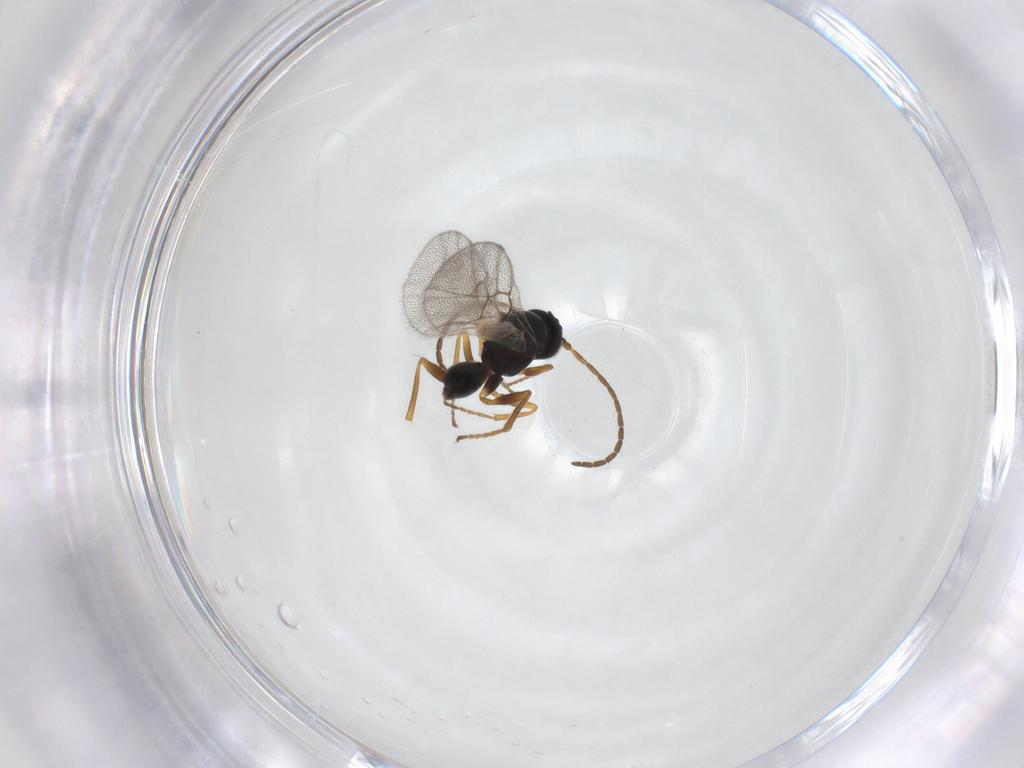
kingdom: Animalia
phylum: Arthropoda
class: Insecta
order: Hymenoptera
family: Cynipidae
